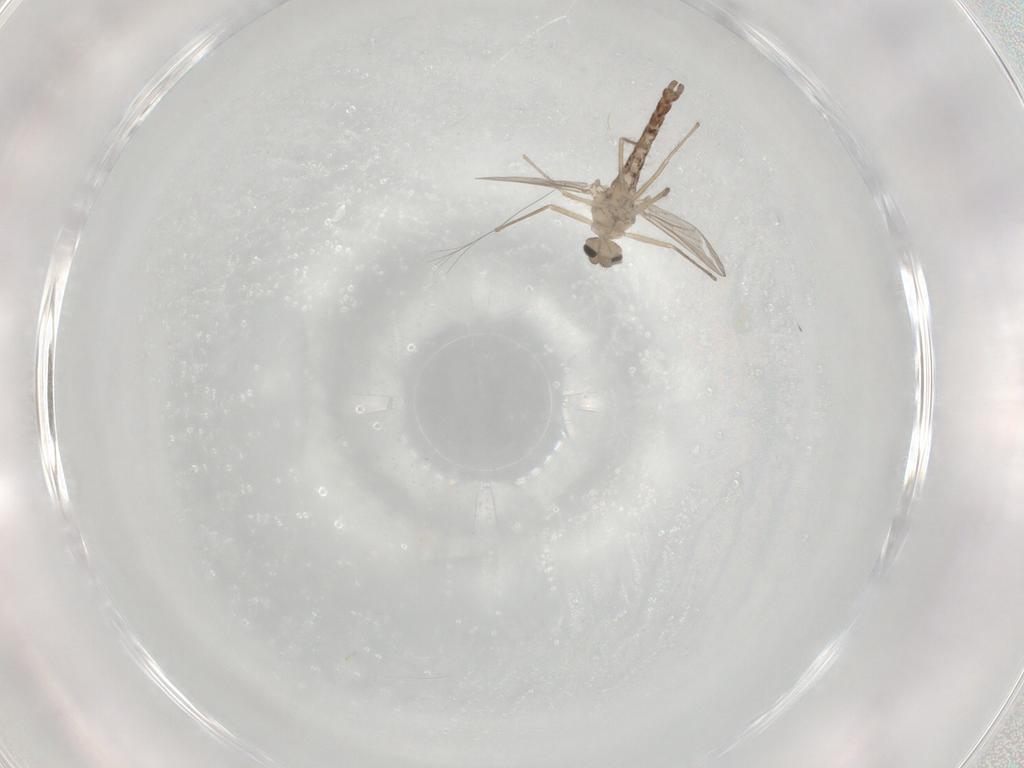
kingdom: Animalia
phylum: Arthropoda
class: Insecta
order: Diptera
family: Chironomidae
